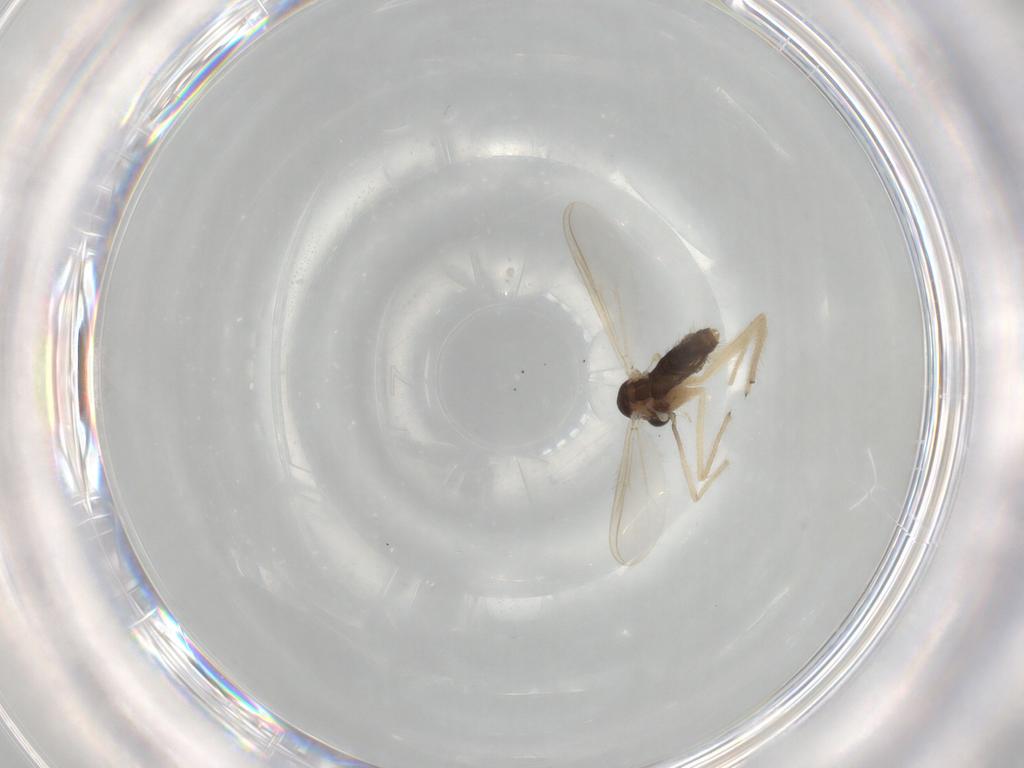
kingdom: Animalia
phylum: Arthropoda
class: Insecta
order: Diptera
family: Chironomidae
